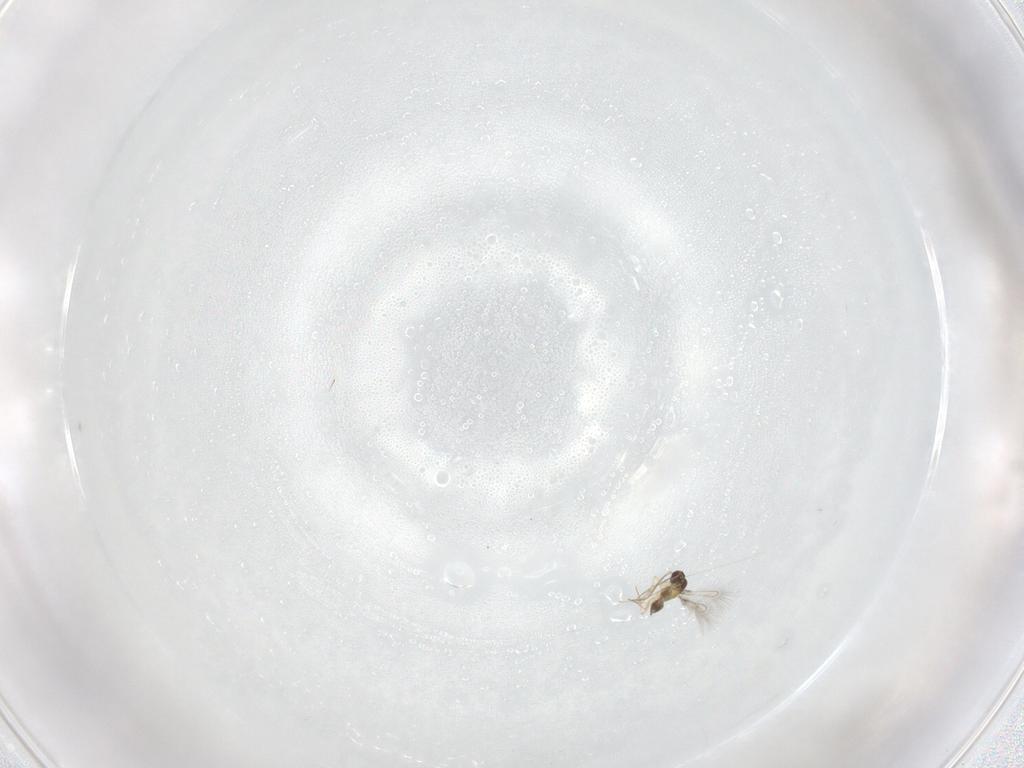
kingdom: Animalia
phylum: Arthropoda
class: Insecta
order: Hymenoptera
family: Mymaridae
